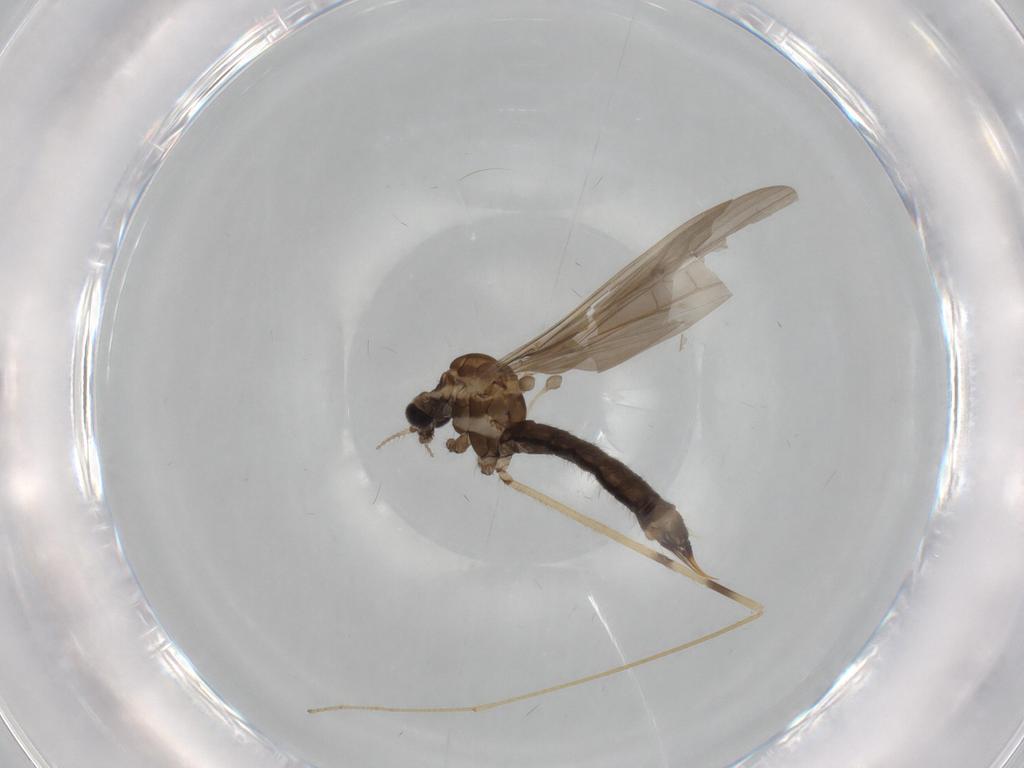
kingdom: Animalia
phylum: Arthropoda
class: Insecta
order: Diptera
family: Limoniidae
